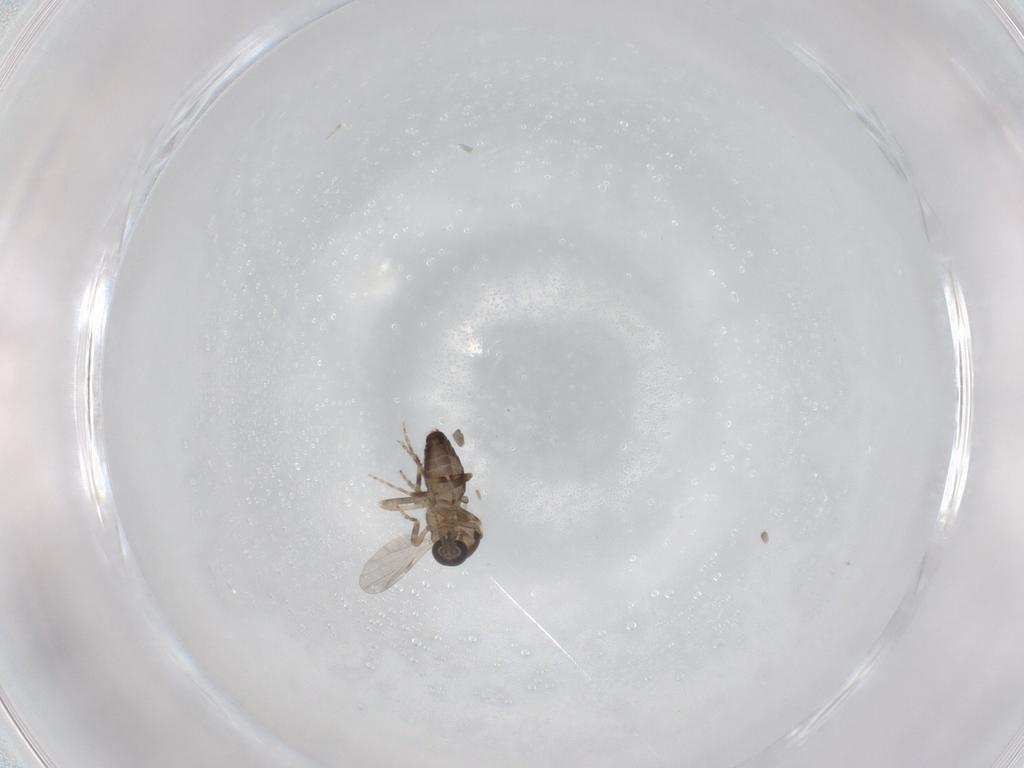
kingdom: Animalia
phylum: Arthropoda
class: Insecta
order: Diptera
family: Ceratopogonidae
